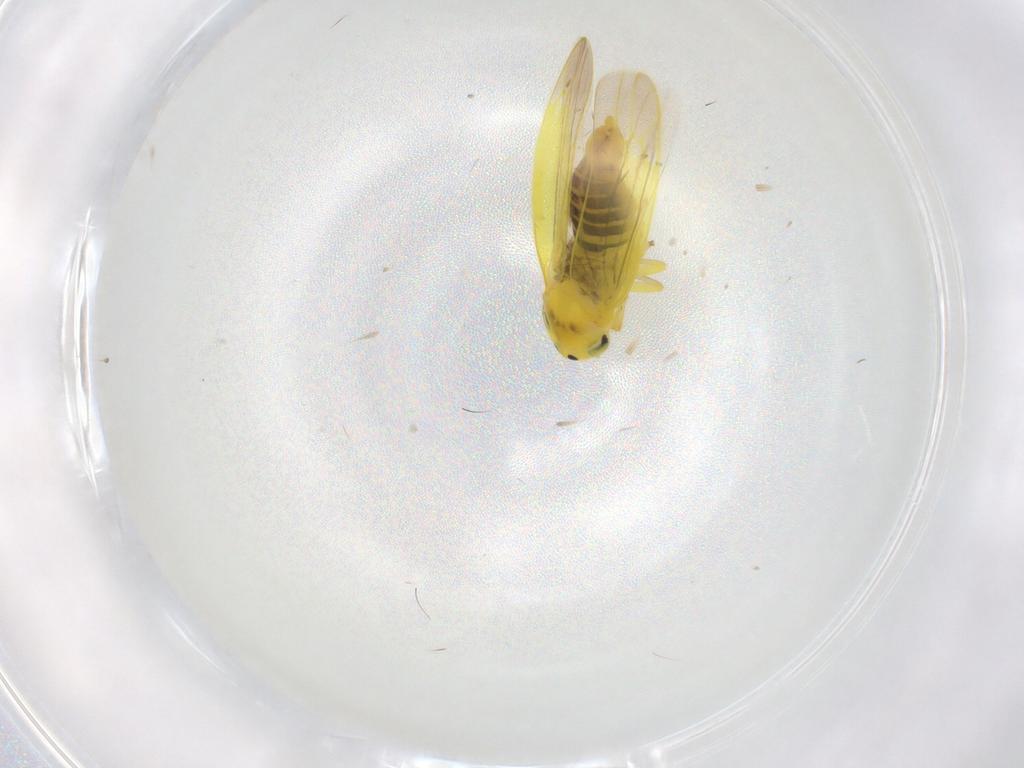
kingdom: Animalia
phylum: Arthropoda
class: Insecta
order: Hemiptera
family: Cicadellidae
